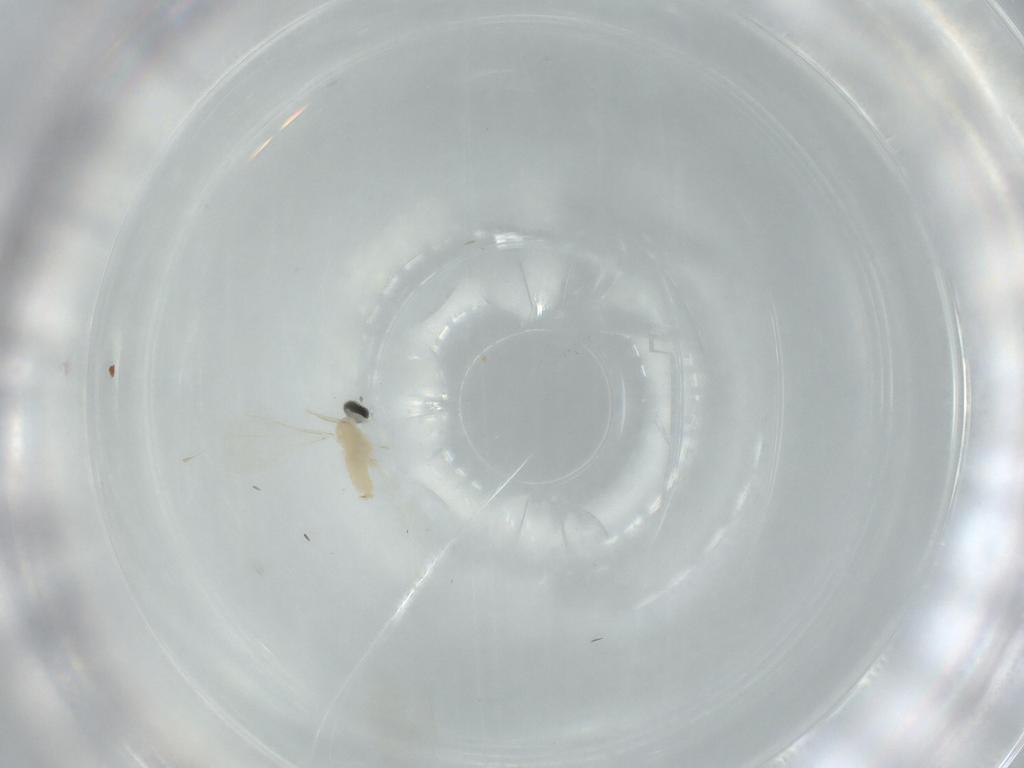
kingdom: Animalia
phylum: Arthropoda
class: Insecta
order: Diptera
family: Cecidomyiidae
